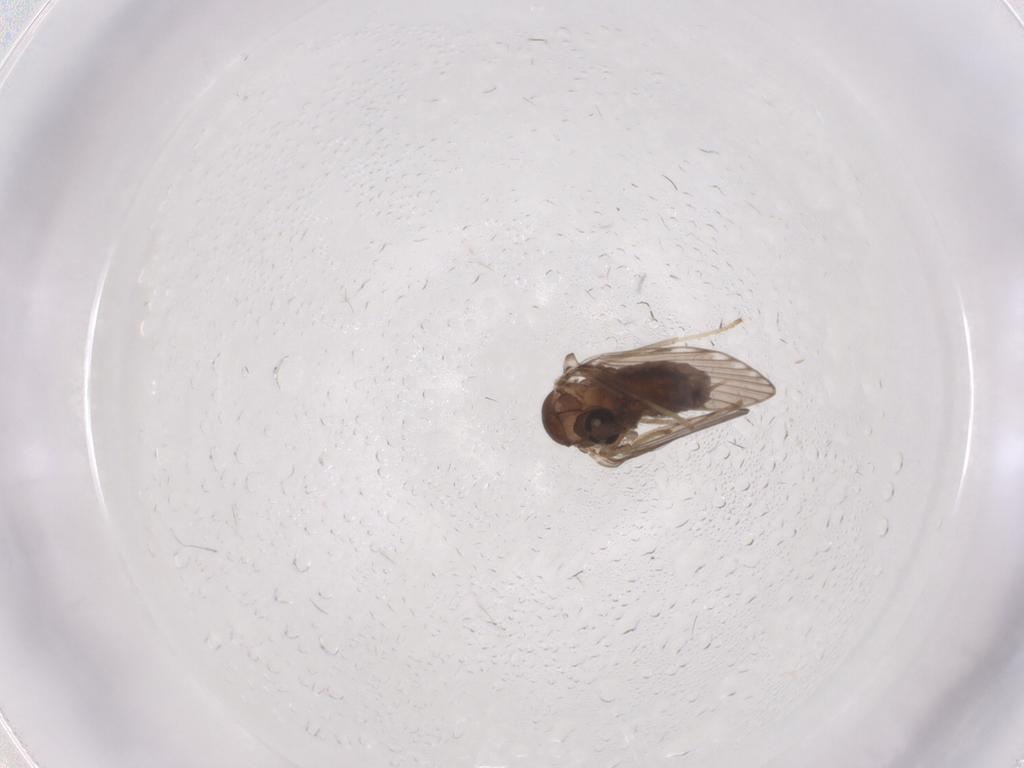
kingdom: Animalia
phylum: Arthropoda
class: Insecta
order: Diptera
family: Psychodidae
